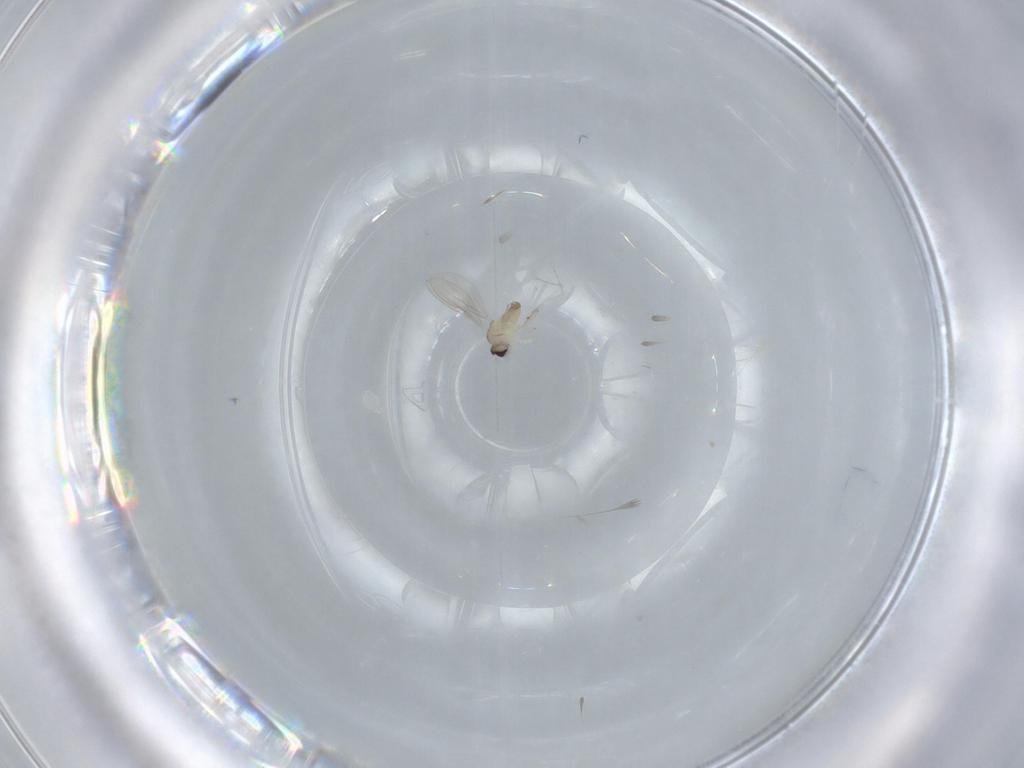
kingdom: Animalia
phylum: Arthropoda
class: Insecta
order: Diptera
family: Cecidomyiidae
